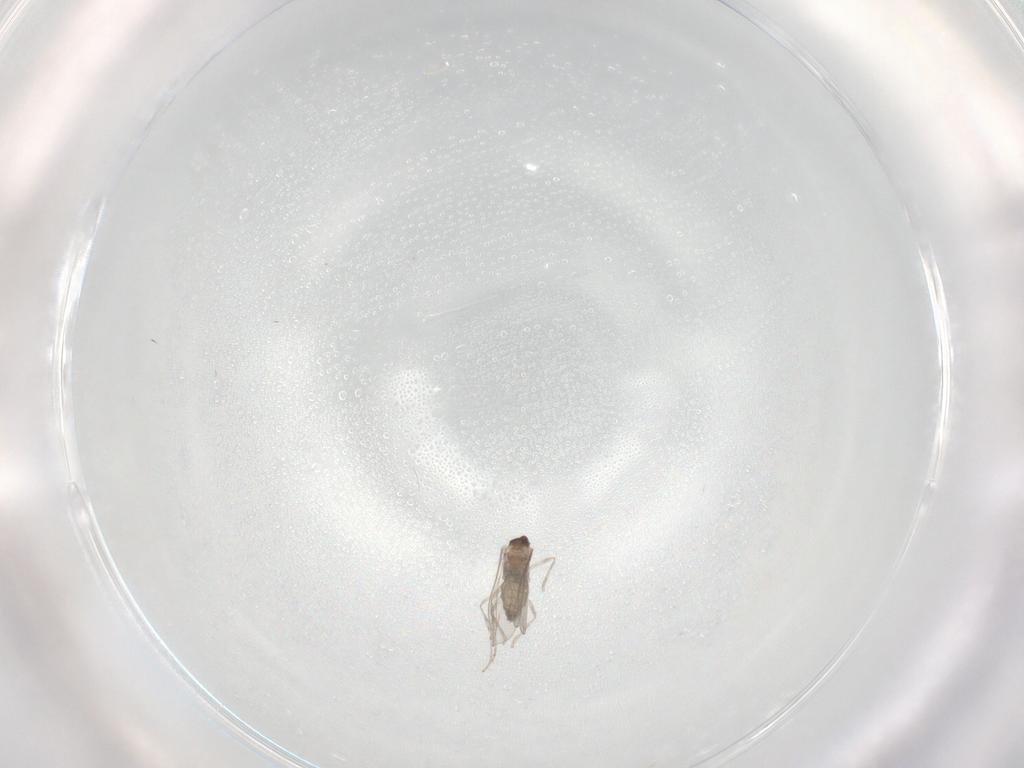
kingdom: Animalia
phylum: Arthropoda
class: Insecta
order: Diptera
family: Cecidomyiidae
